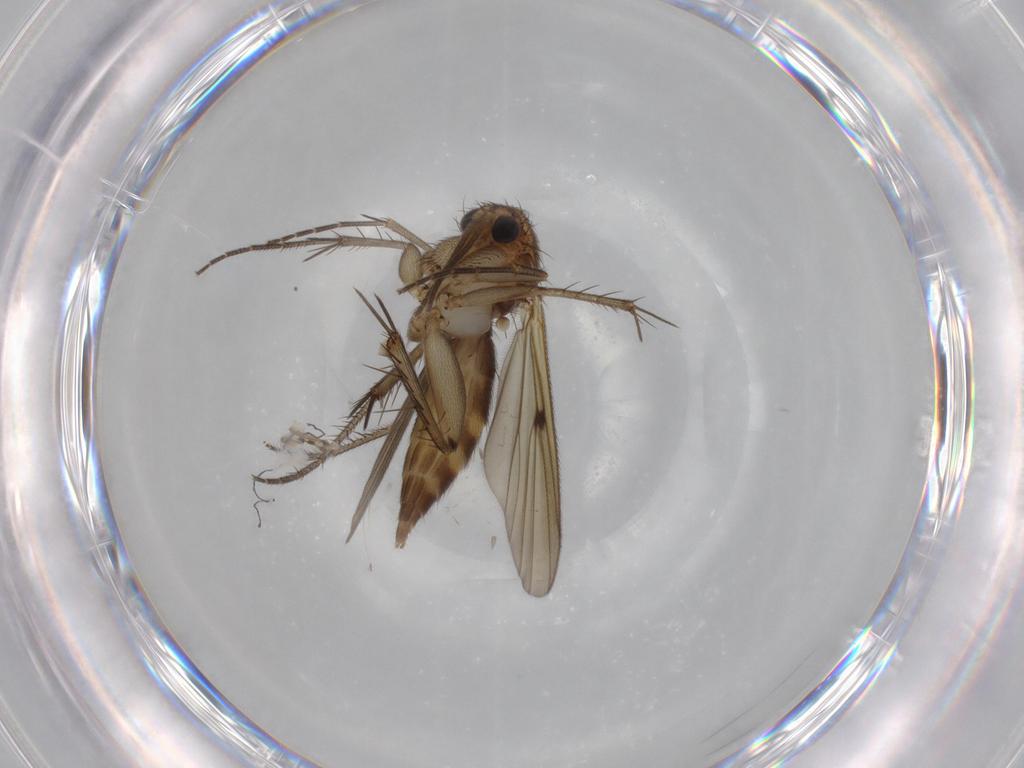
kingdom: Animalia
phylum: Arthropoda
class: Insecta
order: Diptera
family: Mycetophilidae
